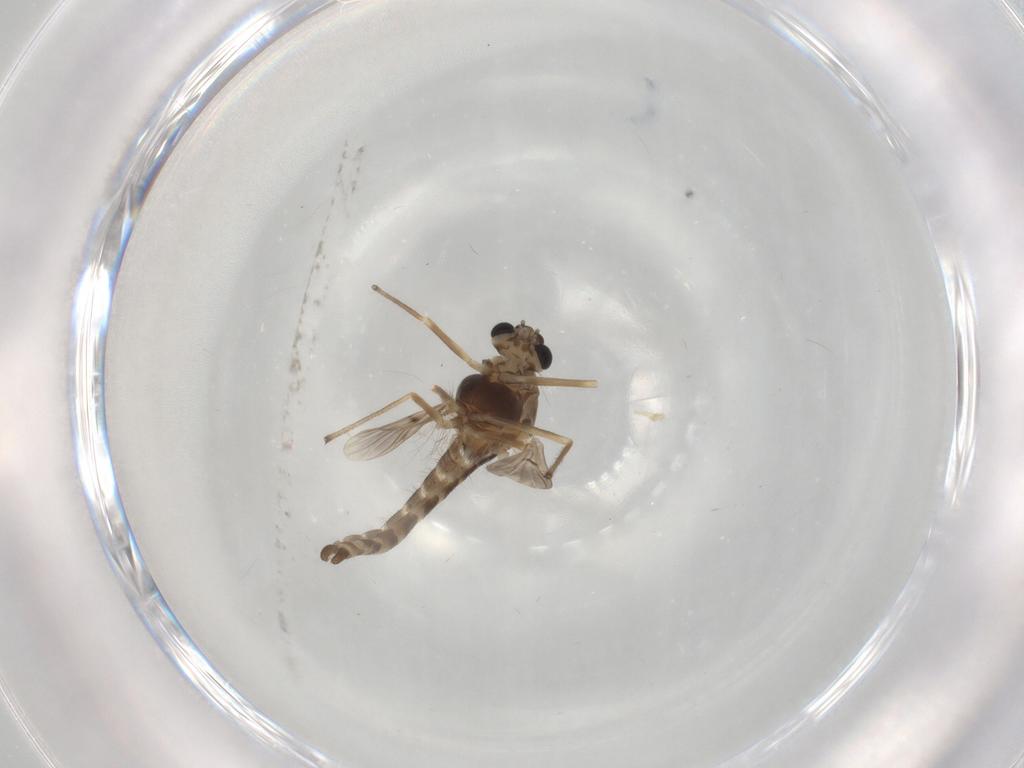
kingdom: Animalia
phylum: Arthropoda
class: Insecta
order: Diptera
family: Chironomidae
